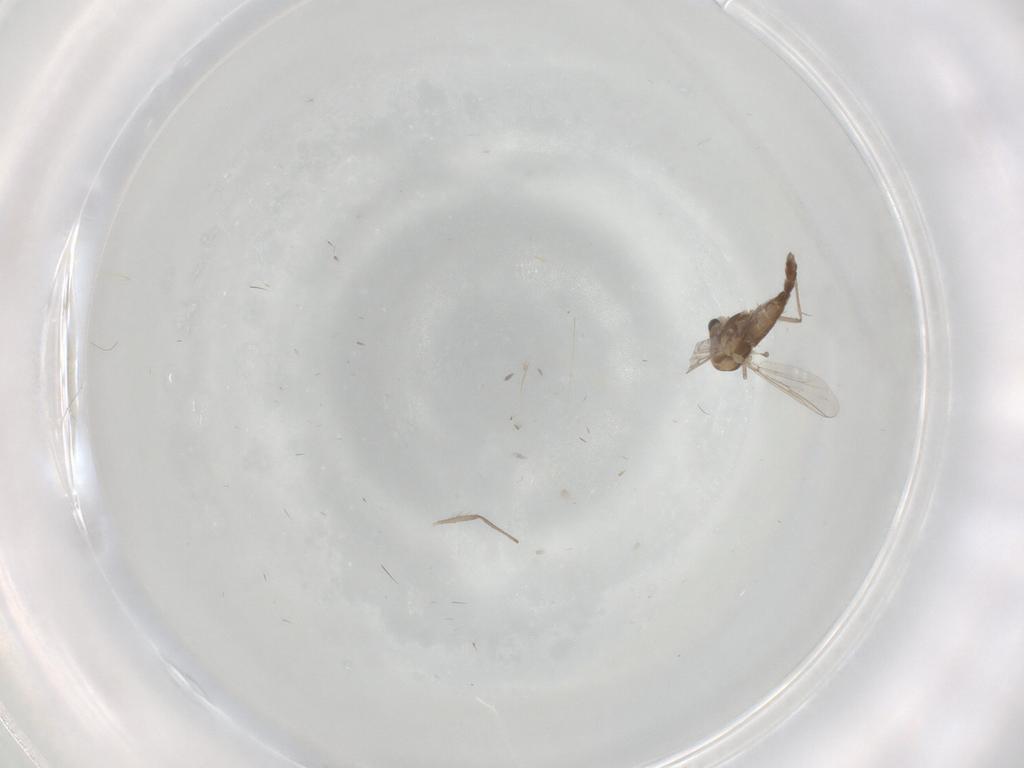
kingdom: Animalia
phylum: Arthropoda
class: Insecta
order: Diptera
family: Chironomidae
